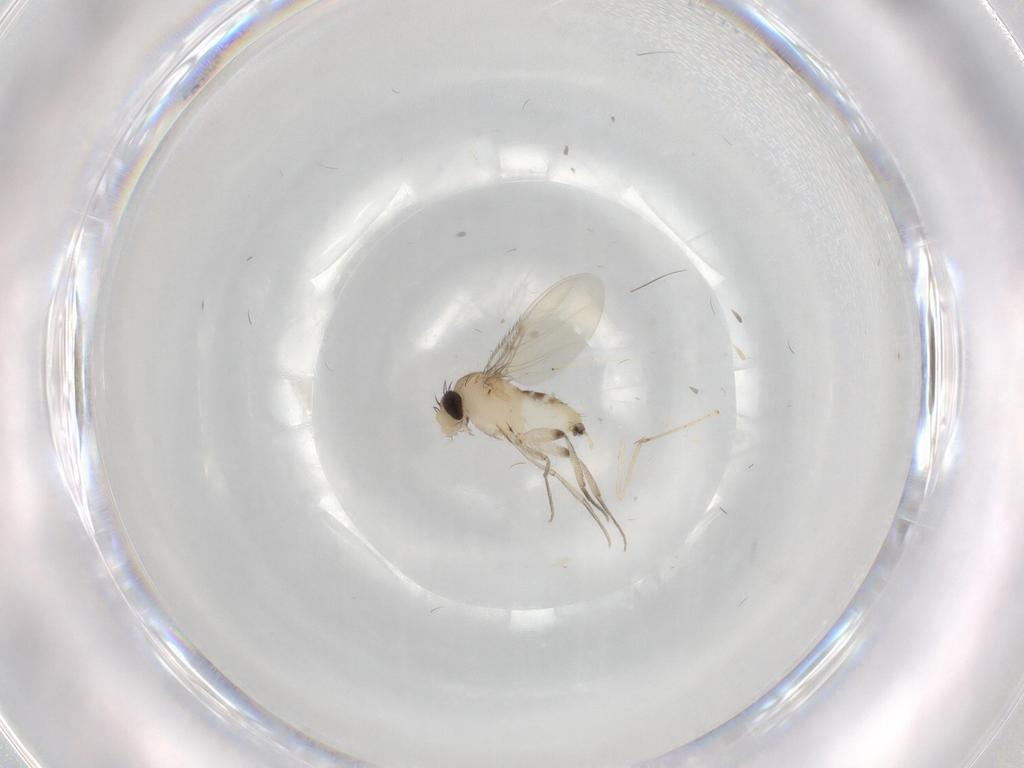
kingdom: Animalia
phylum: Arthropoda
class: Insecta
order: Diptera
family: Phoridae
